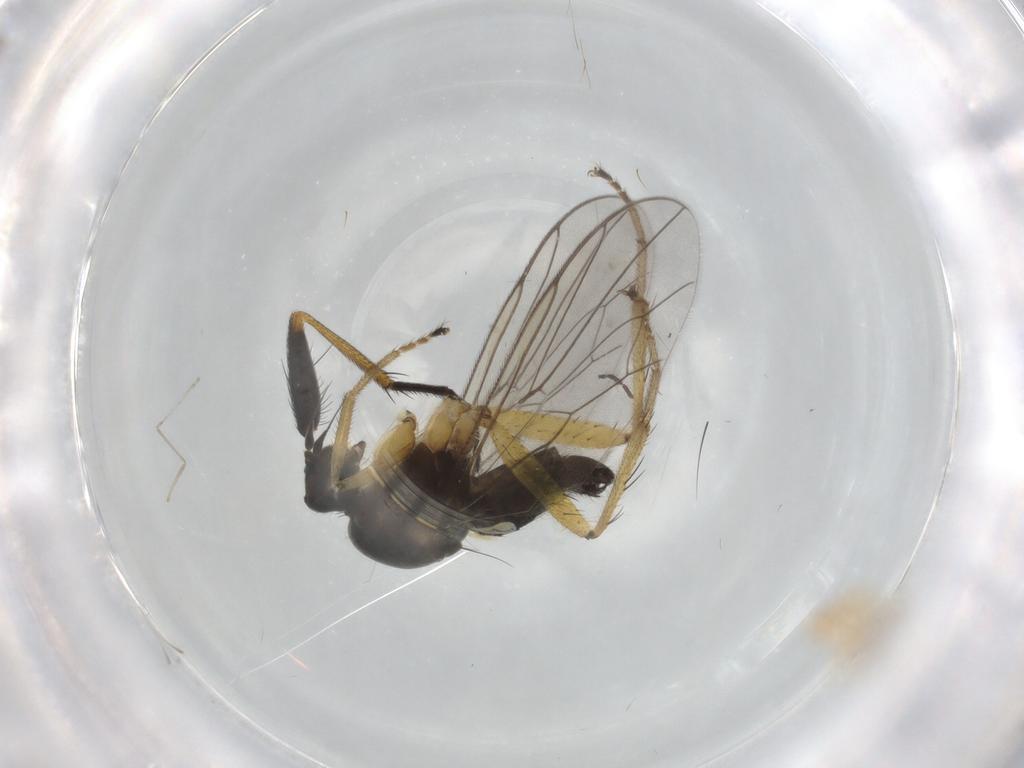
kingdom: Animalia
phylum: Arthropoda
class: Insecta
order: Diptera
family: Hybotidae
